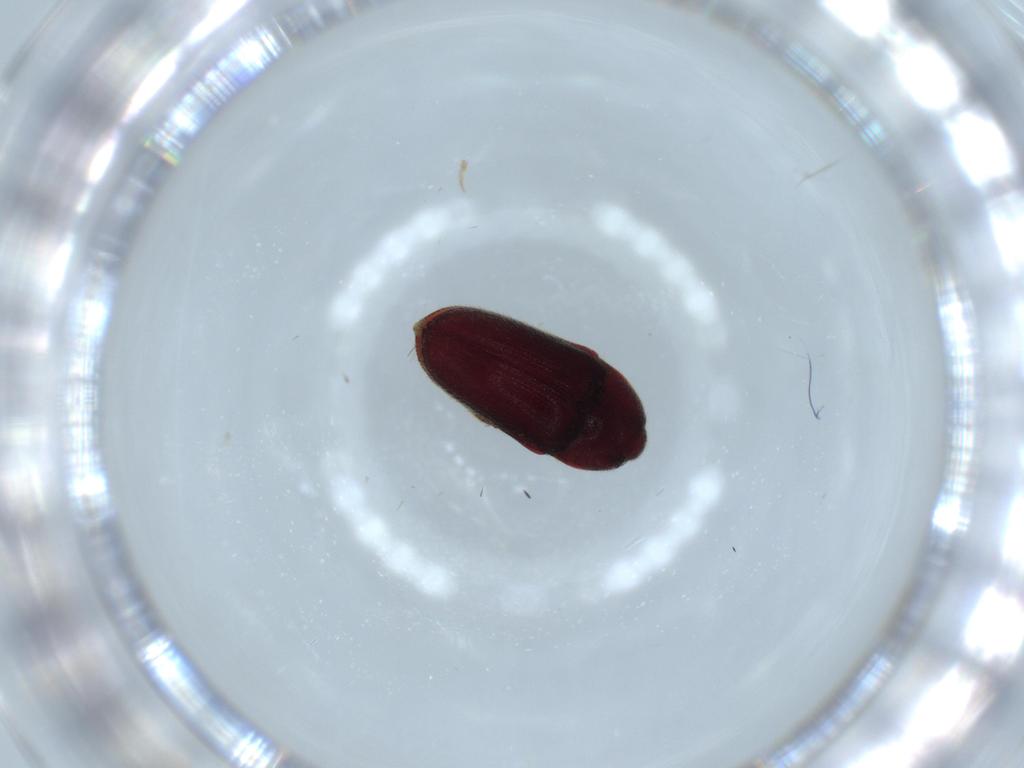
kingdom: Animalia
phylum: Arthropoda
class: Insecta
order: Coleoptera
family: Throscidae
